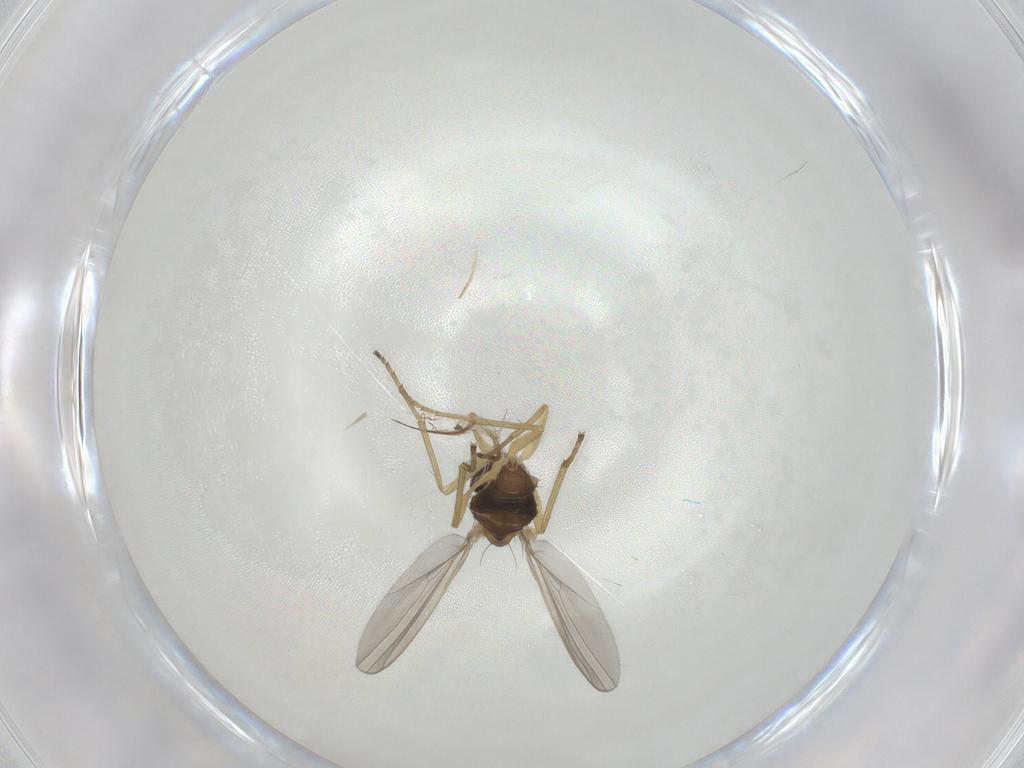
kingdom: Animalia
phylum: Arthropoda
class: Insecta
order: Diptera
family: Dolichopodidae
